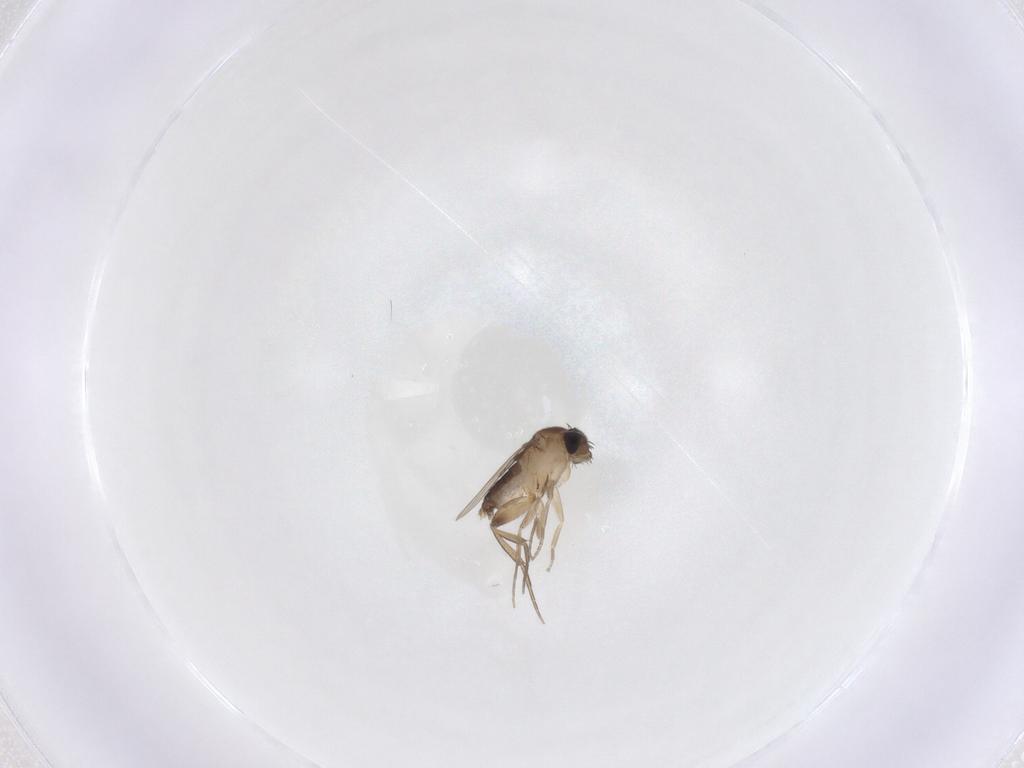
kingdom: Animalia
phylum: Arthropoda
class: Insecta
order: Diptera
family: Phoridae
